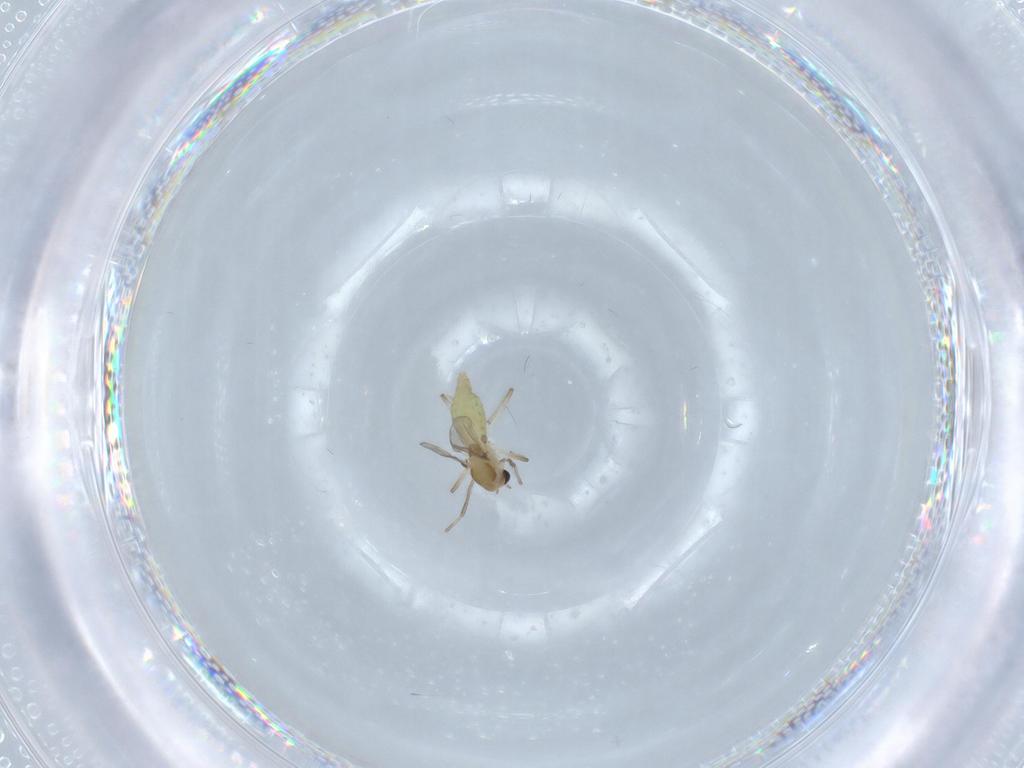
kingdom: Animalia
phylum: Arthropoda
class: Insecta
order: Diptera
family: Chironomidae
